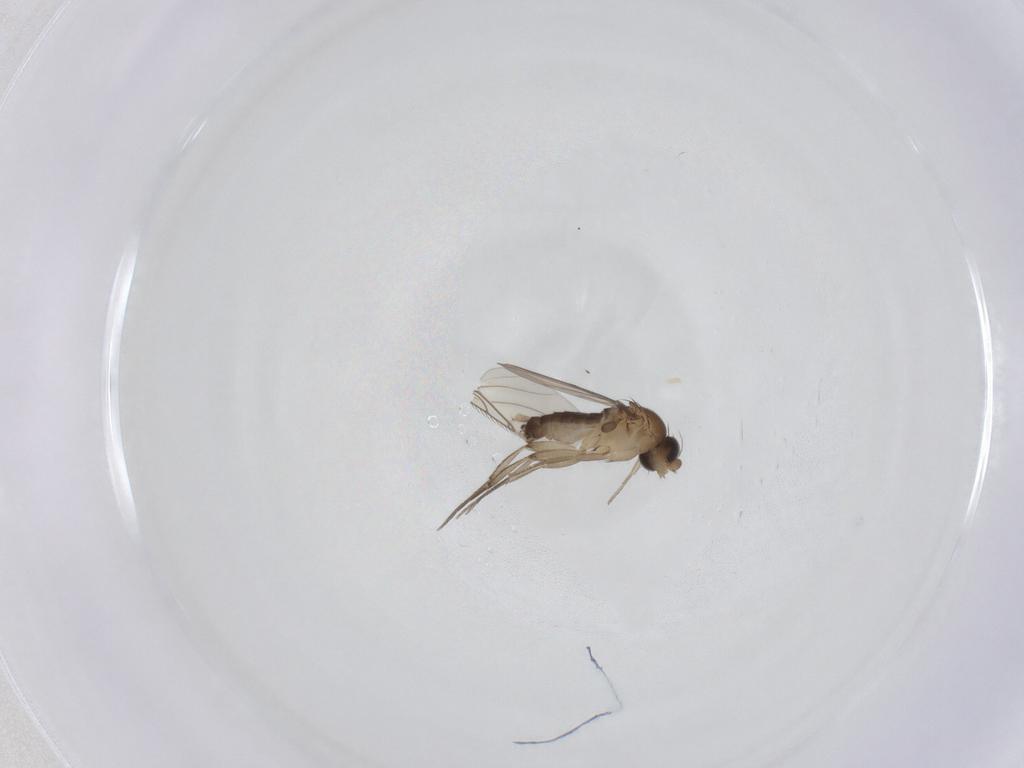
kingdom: Animalia
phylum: Arthropoda
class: Insecta
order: Diptera
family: Phoridae
